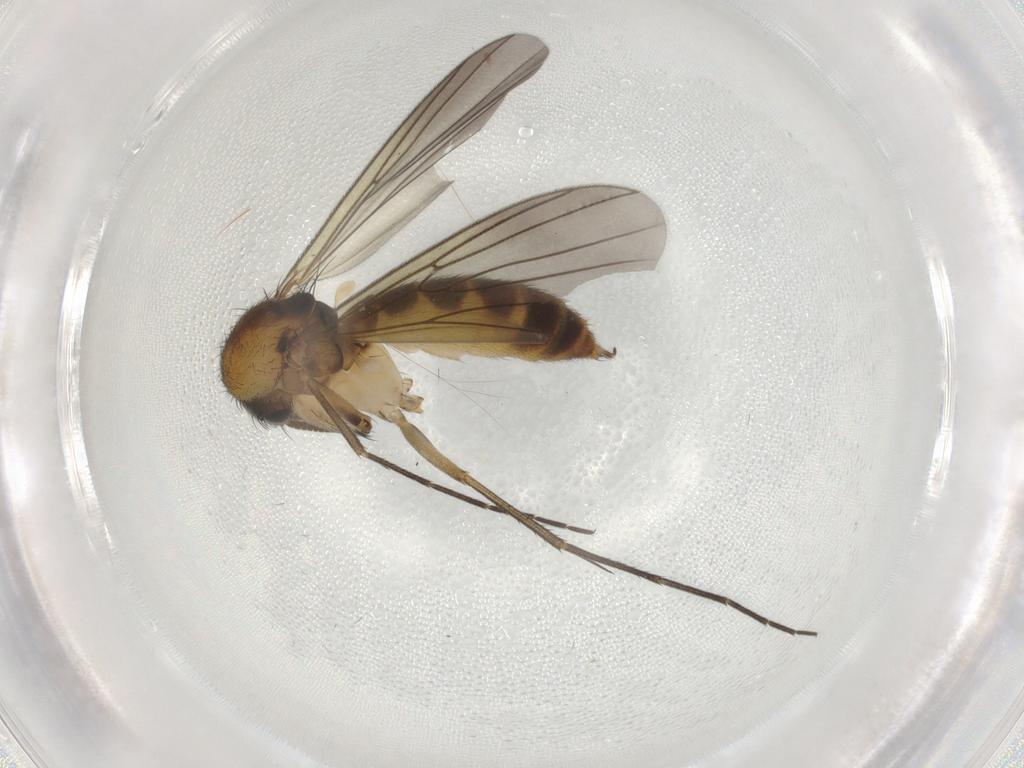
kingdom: Animalia
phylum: Arthropoda
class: Insecta
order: Diptera
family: Mycetophilidae
